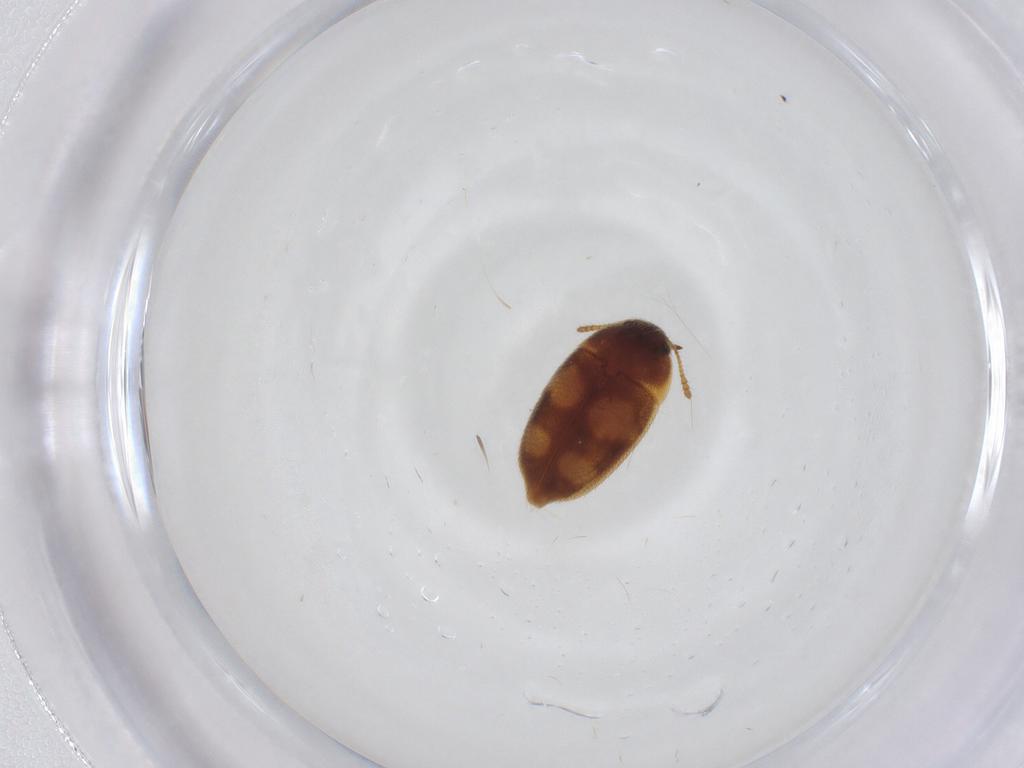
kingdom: Animalia
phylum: Arthropoda
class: Insecta
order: Coleoptera
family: Mycetophagidae
